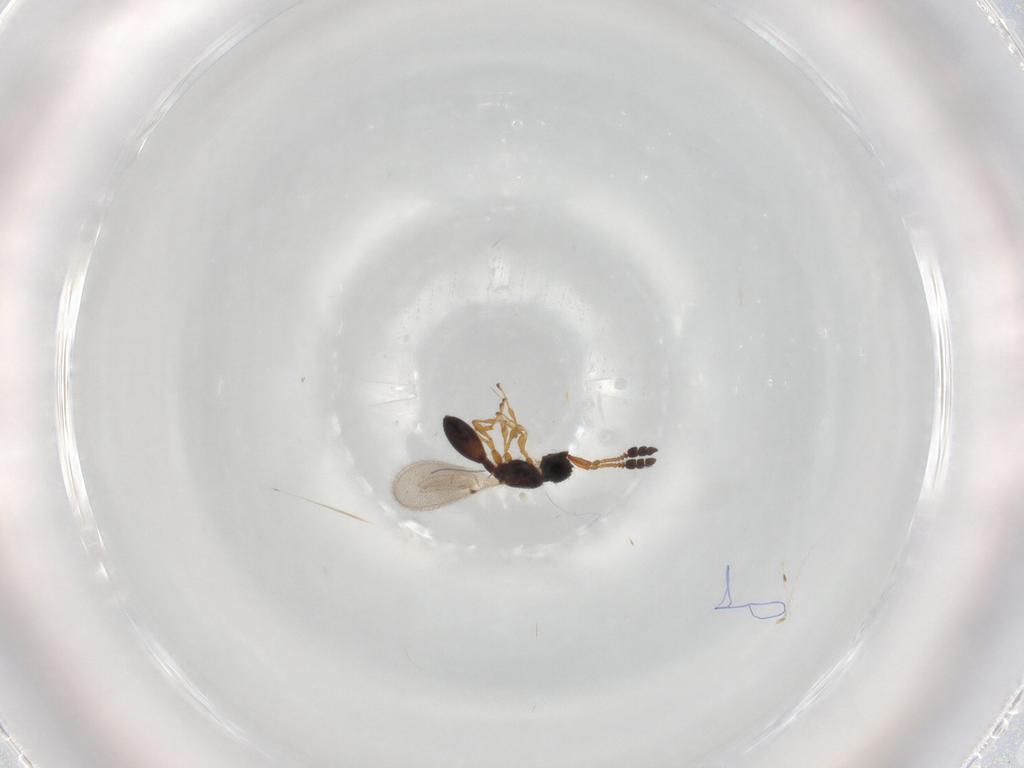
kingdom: Animalia
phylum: Arthropoda
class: Insecta
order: Hymenoptera
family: Diapriidae
